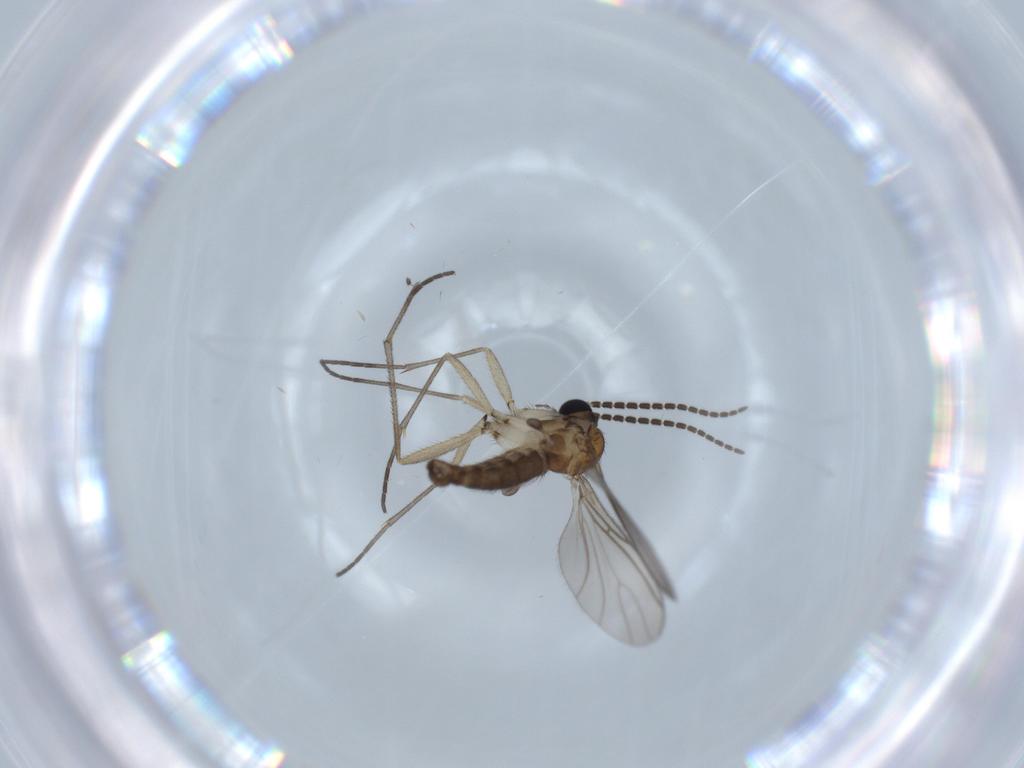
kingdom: Animalia
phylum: Arthropoda
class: Insecta
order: Diptera
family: Sciaridae
